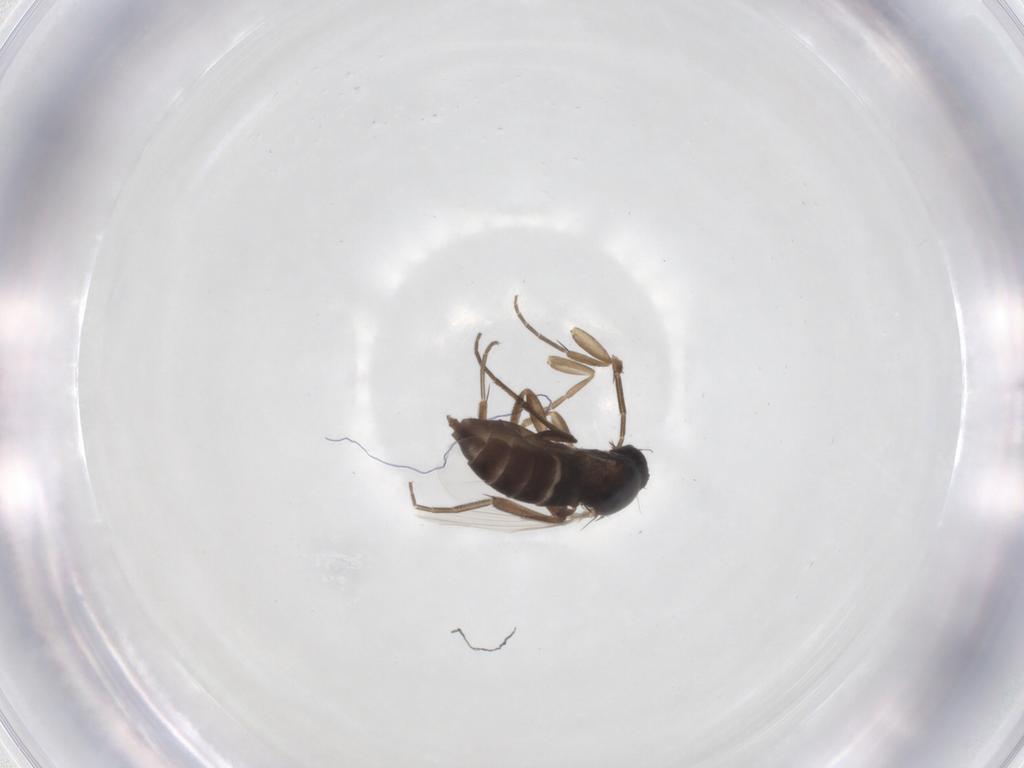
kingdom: Animalia
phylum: Arthropoda
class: Insecta
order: Diptera
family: Phoridae
